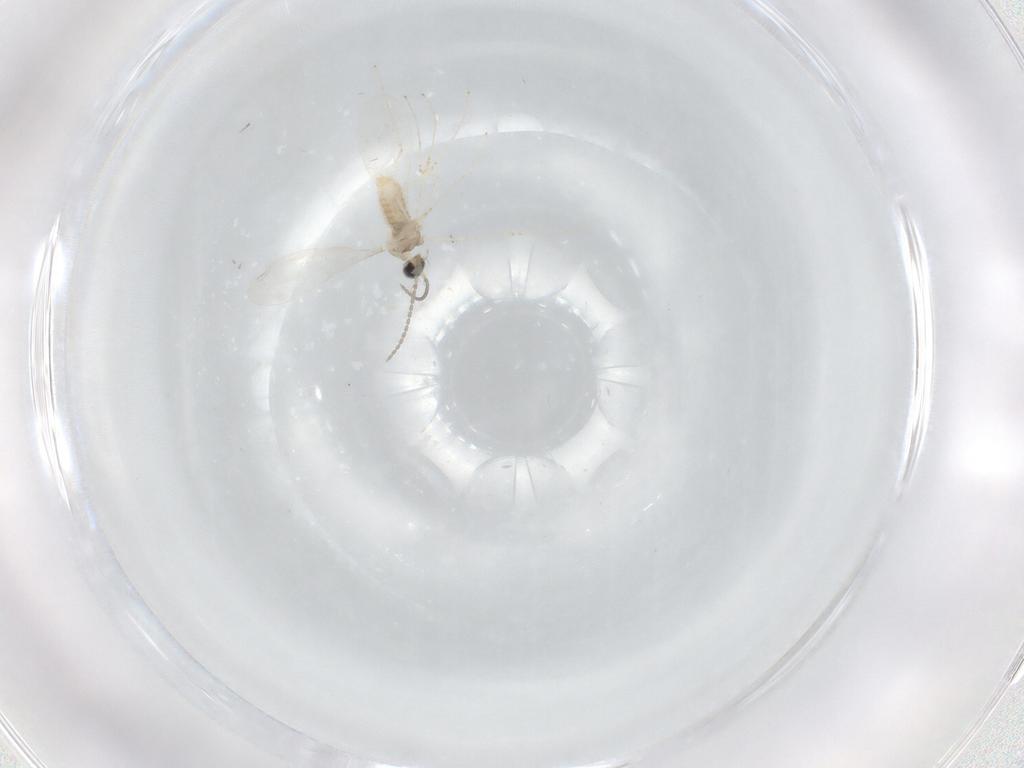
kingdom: Animalia
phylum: Arthropoda
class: Insecta
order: Diptera
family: Cecidomyiidae
